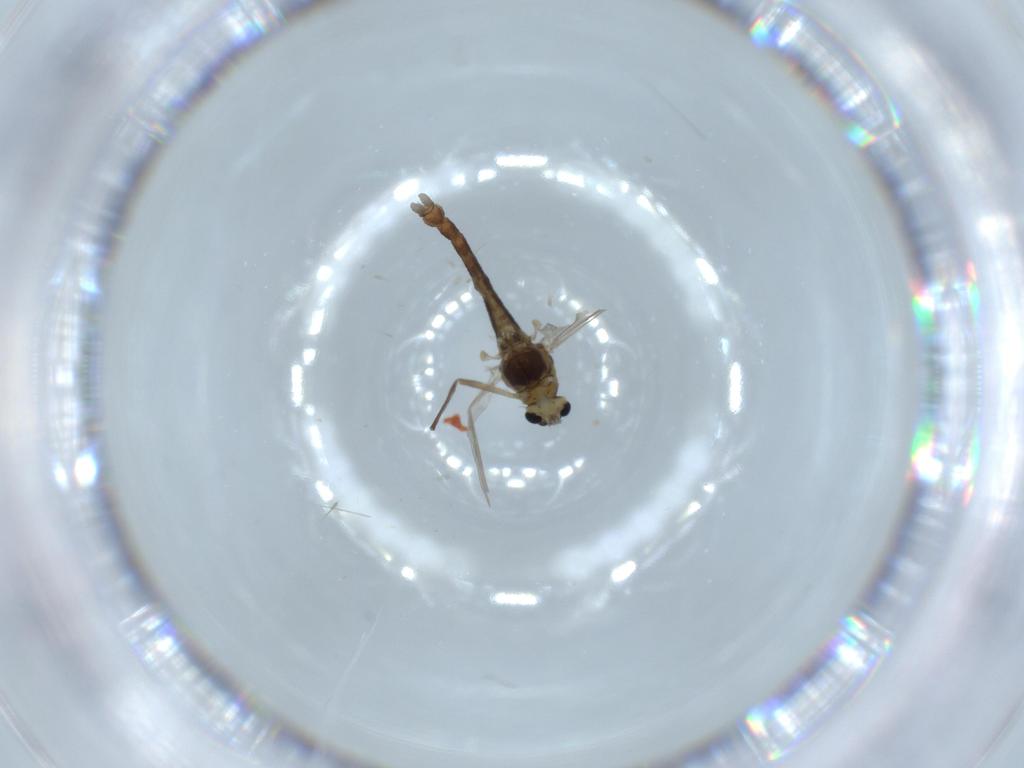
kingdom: Animalia
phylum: Arthropoda
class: Insecta
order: Diptera
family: Chironomidae
